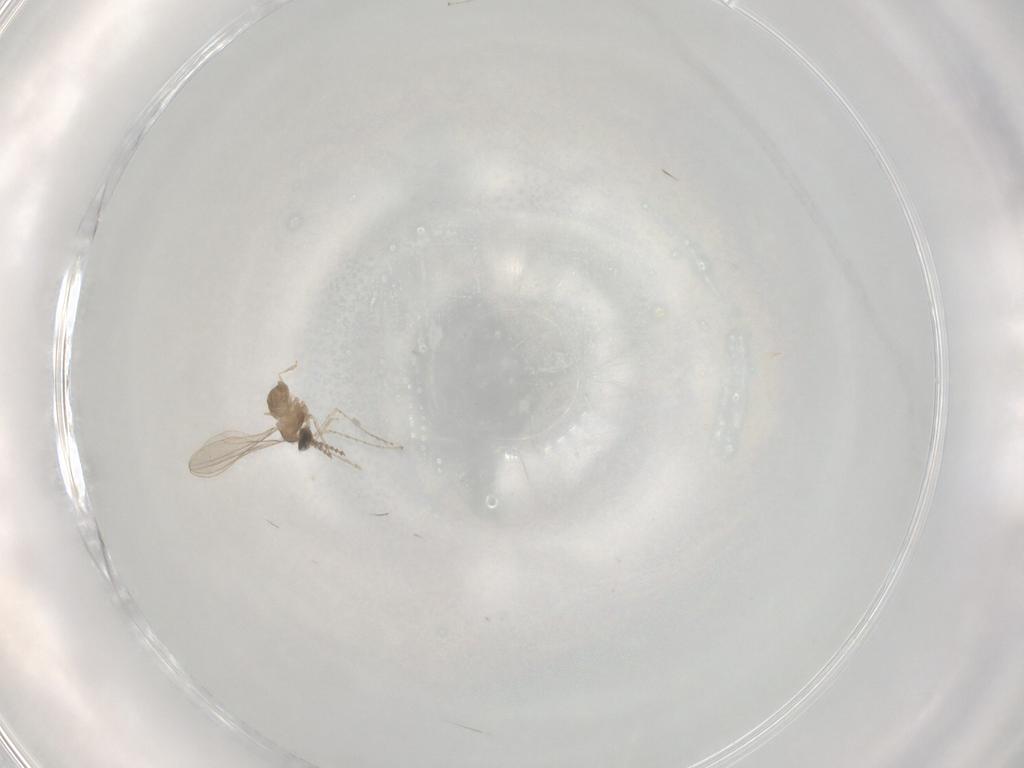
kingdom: Animalia
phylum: Arthropoda
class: Insecta
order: Diptera
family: Cecidomyiidae
